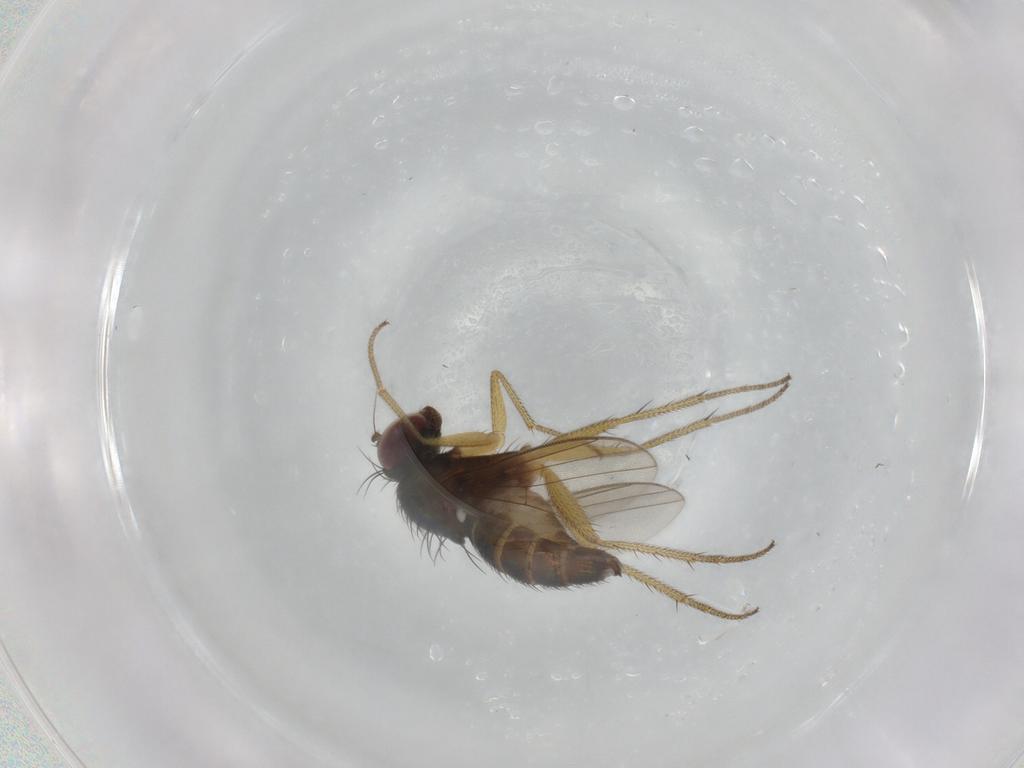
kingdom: Animalia
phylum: Arthropoda
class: Insecta
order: Diptera
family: Dolichopodidae
